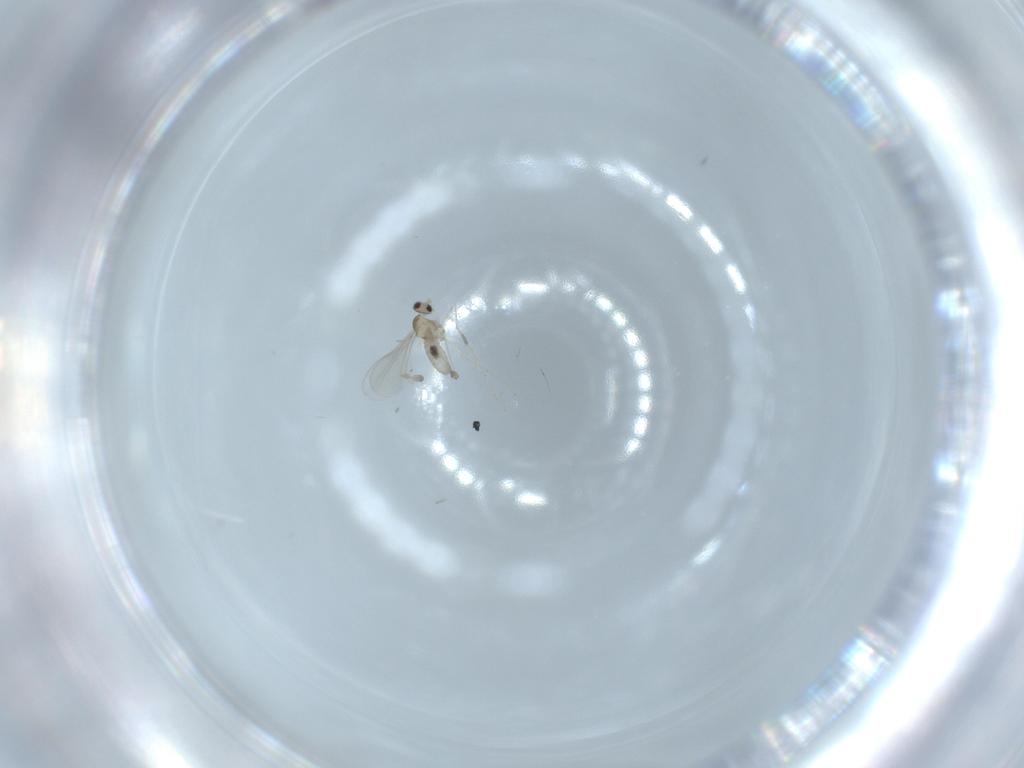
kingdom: Animalia
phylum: Arthropoda
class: Insecta
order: Diptera
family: Cecidomyiidae
